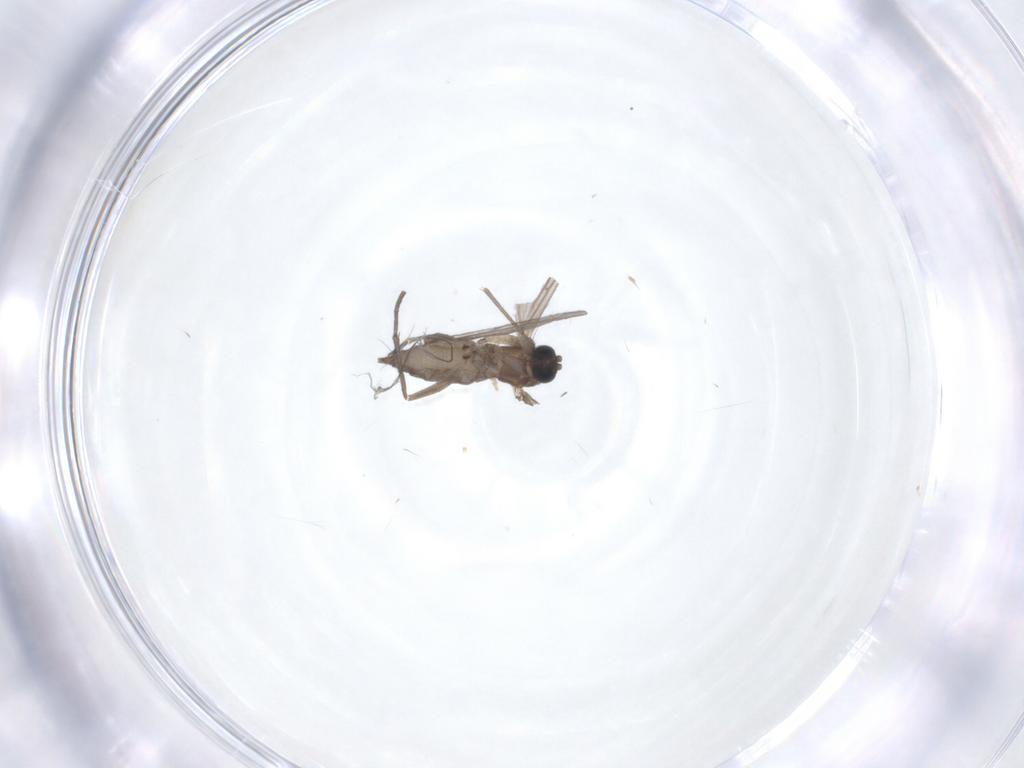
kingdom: Animalia
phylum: Arthropoda
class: Insecta
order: Diptera
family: Sciaridae
